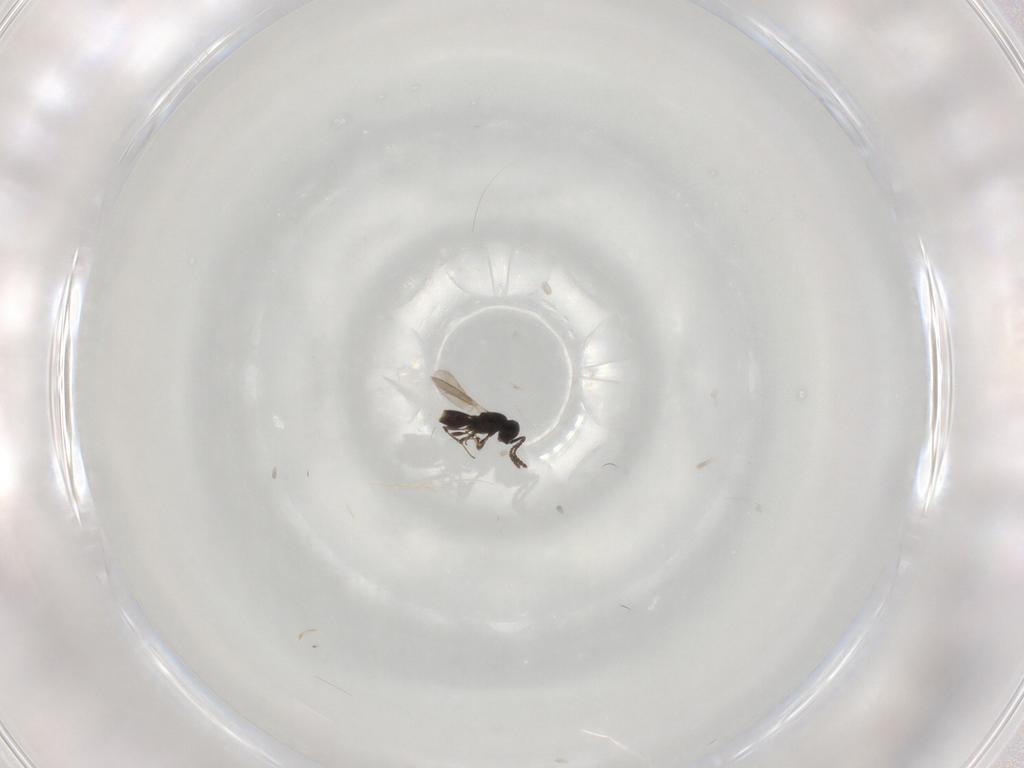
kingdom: Animalia
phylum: Arthropoda
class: Insecta
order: Hymenoptera
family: Scelionidae
